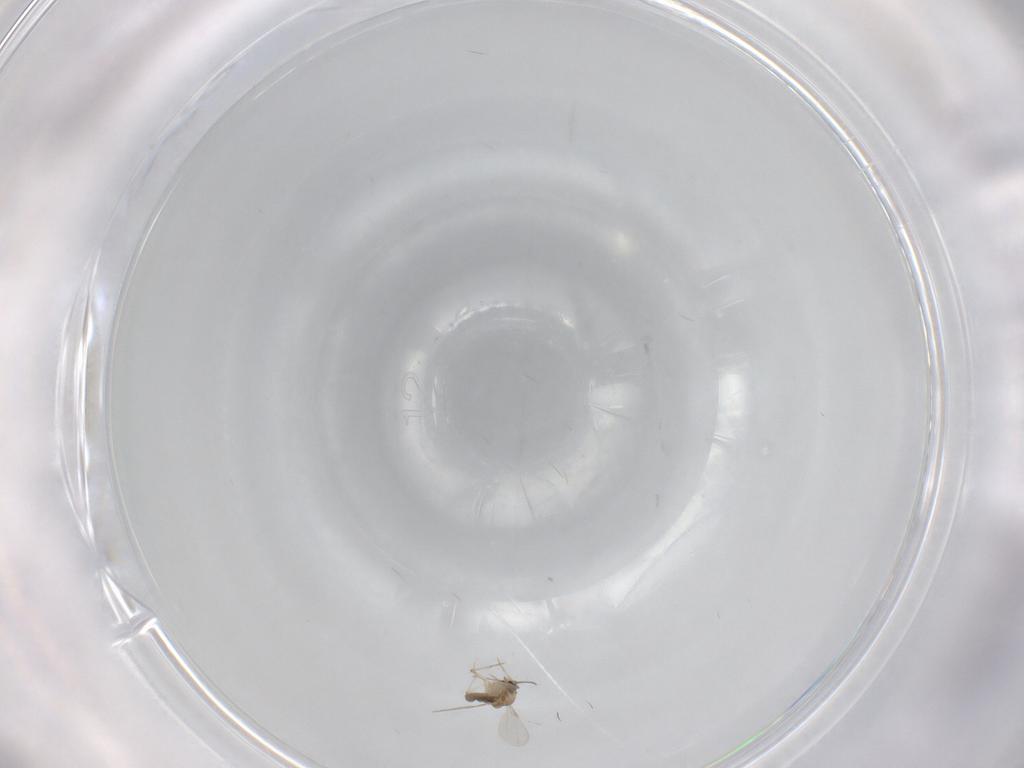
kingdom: Animalia
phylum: Arthropoda
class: Insecta
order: Diptera
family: Ceratopogonidae
